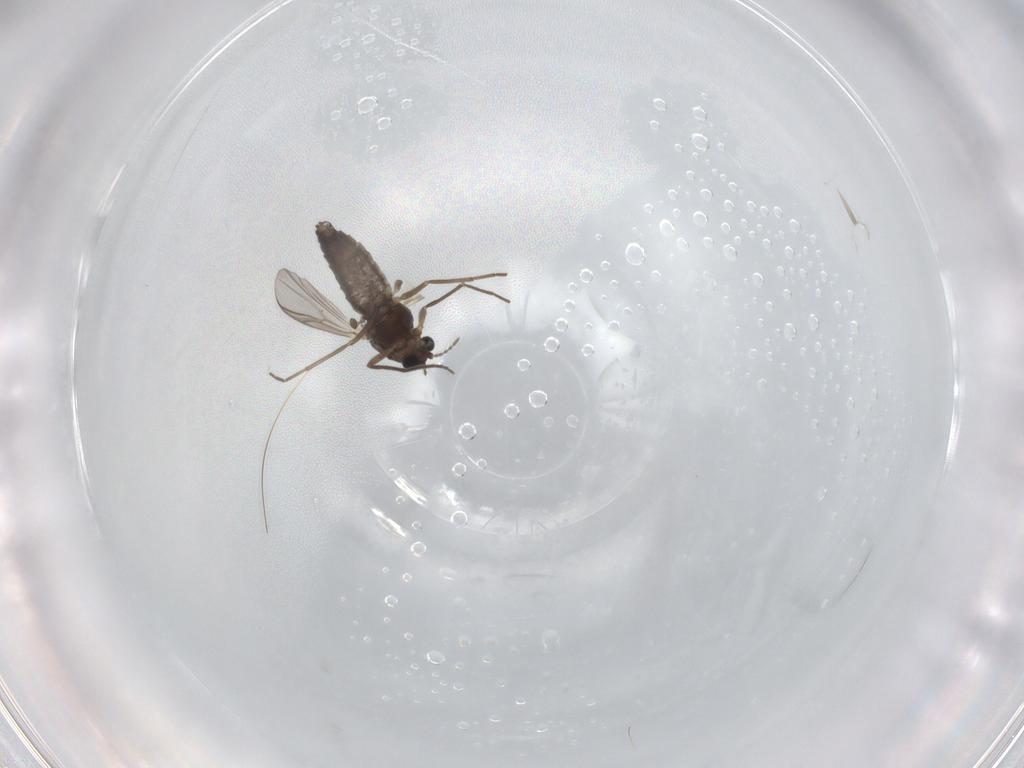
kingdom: Animalia
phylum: Arthropoda
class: Insecta
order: Diptera
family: Chironomidae
